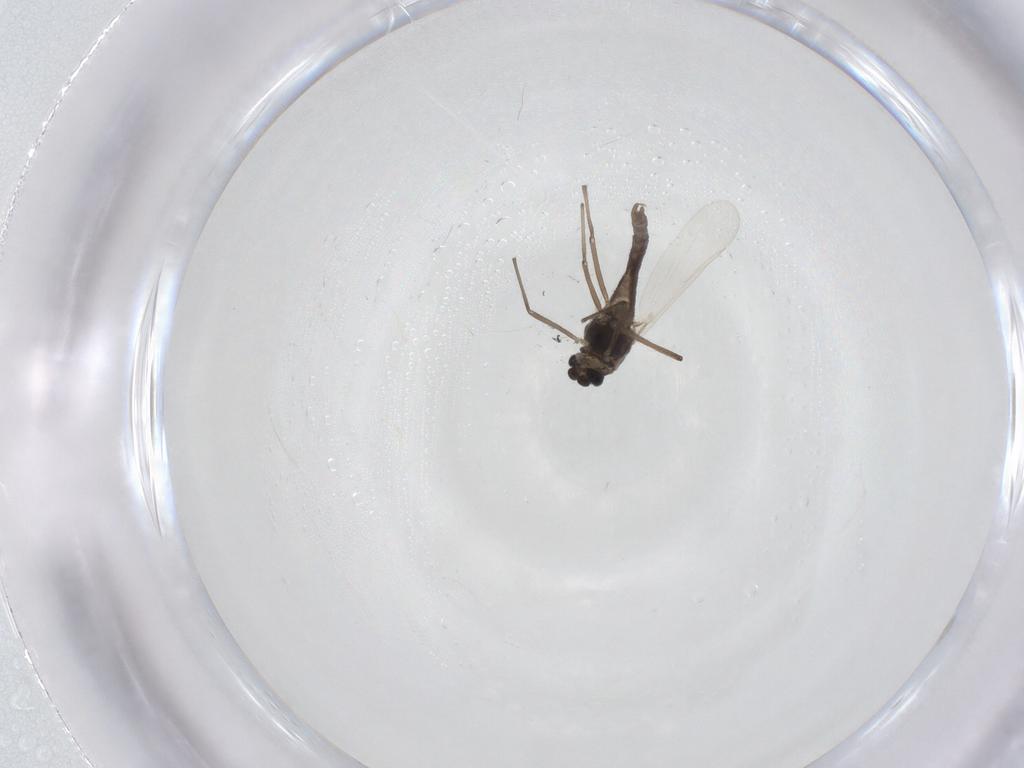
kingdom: Animalia
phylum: Arthropoda
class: Insecta
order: Diptera
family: Chironomidae
